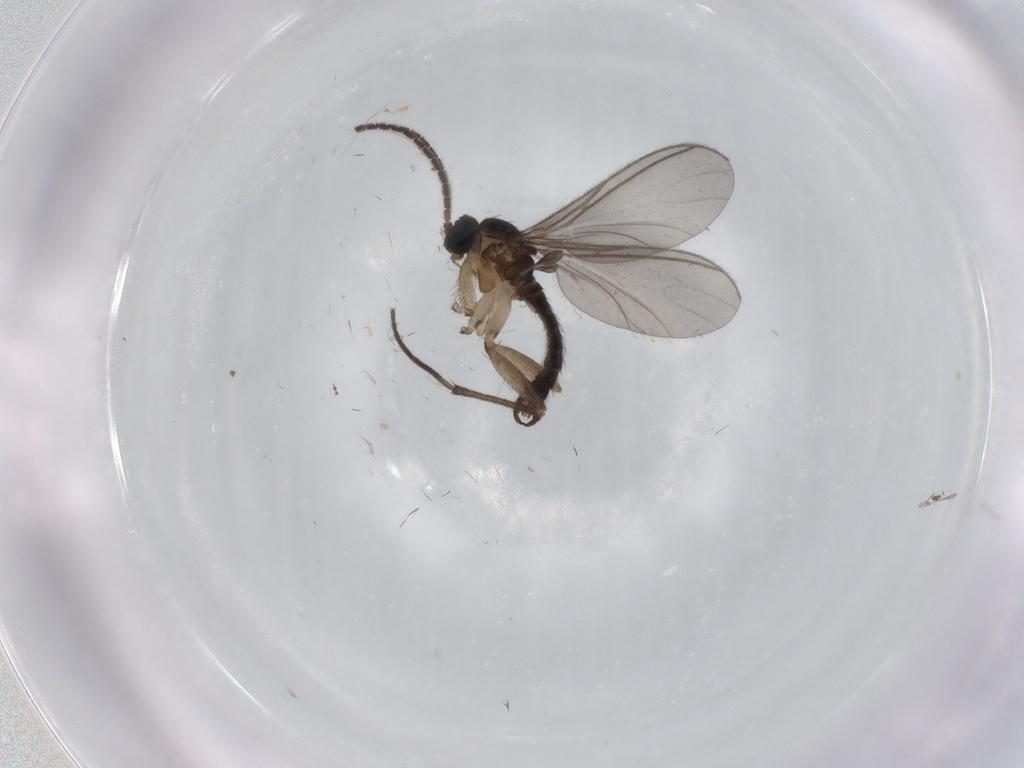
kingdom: Animalia
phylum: Arthropoda
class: Insecta
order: Diptera
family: Sciaridae
